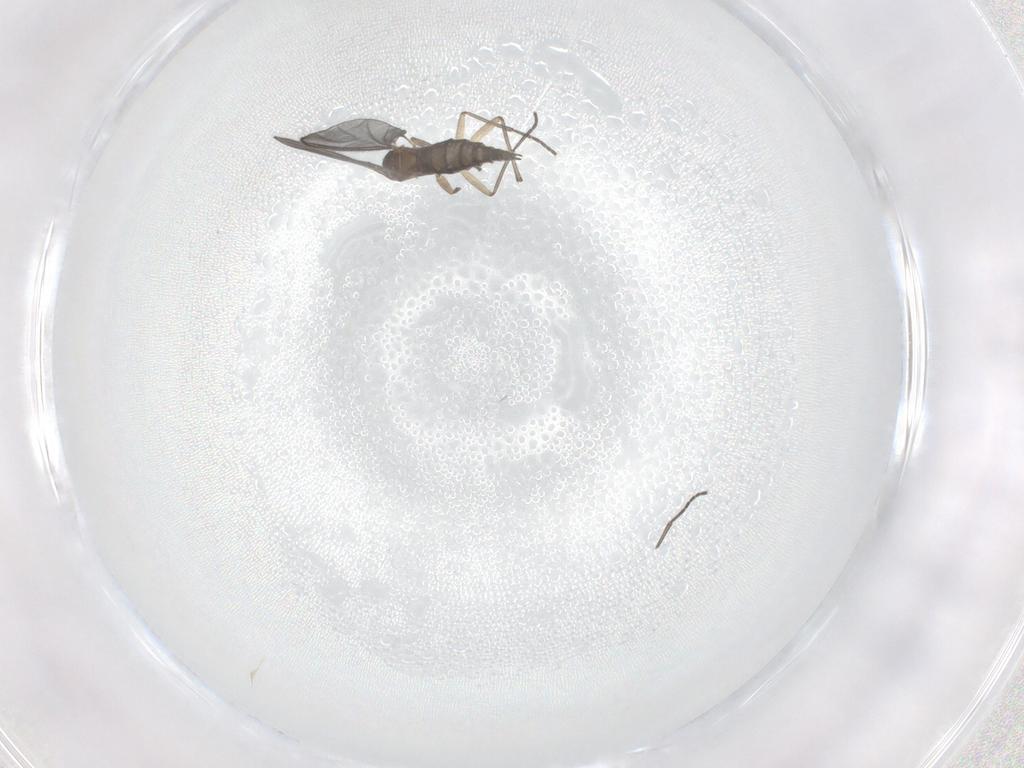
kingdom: Animalia
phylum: Arthropoda
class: Insecta
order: Diptera
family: Sciaridae
